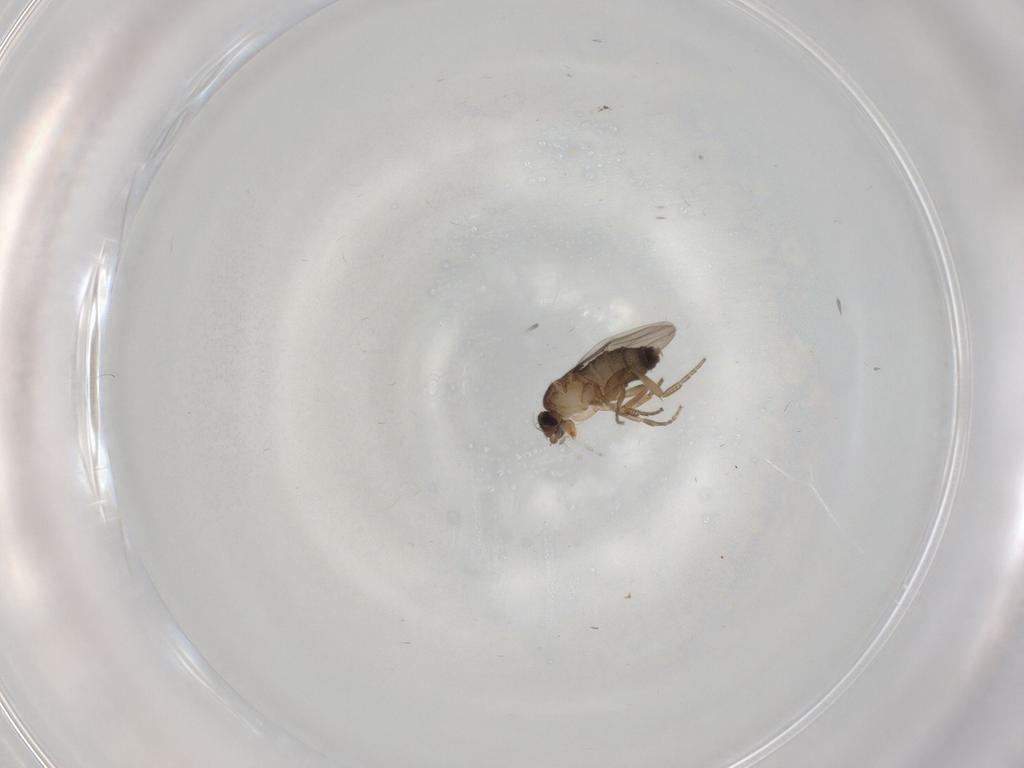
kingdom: Animalia
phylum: Arthropoda
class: Insecta
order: Diptera
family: Phoridae
